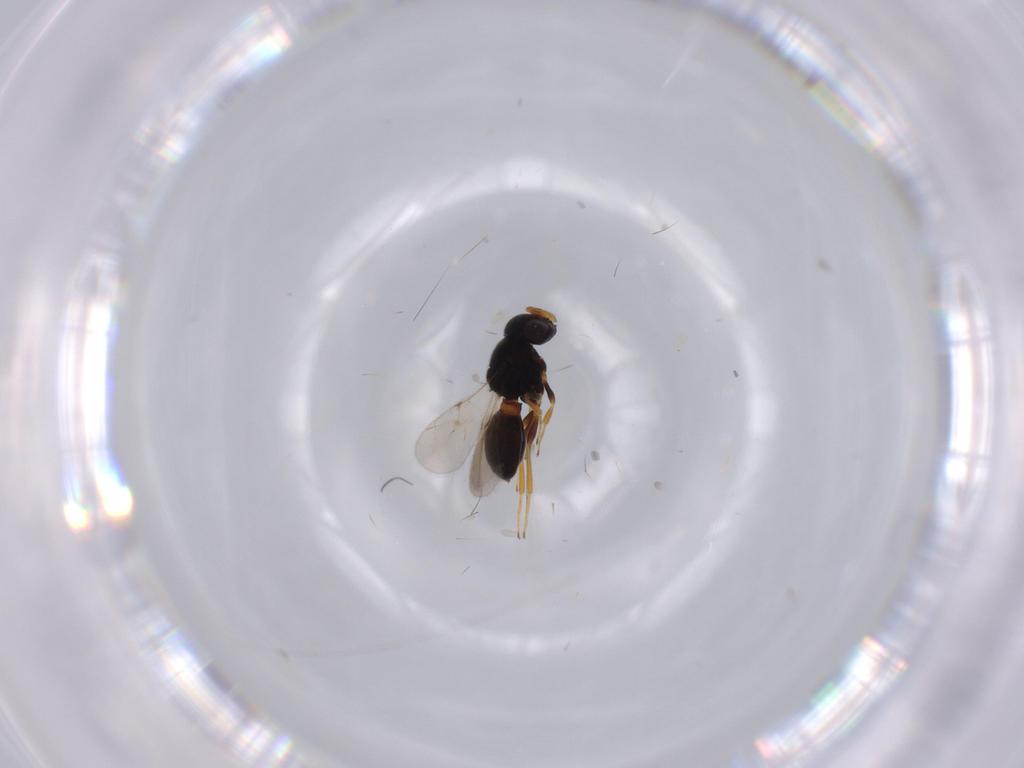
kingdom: Animalia
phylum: Arthropoda
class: Insecta
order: Hymenoptera
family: Scelionidae
